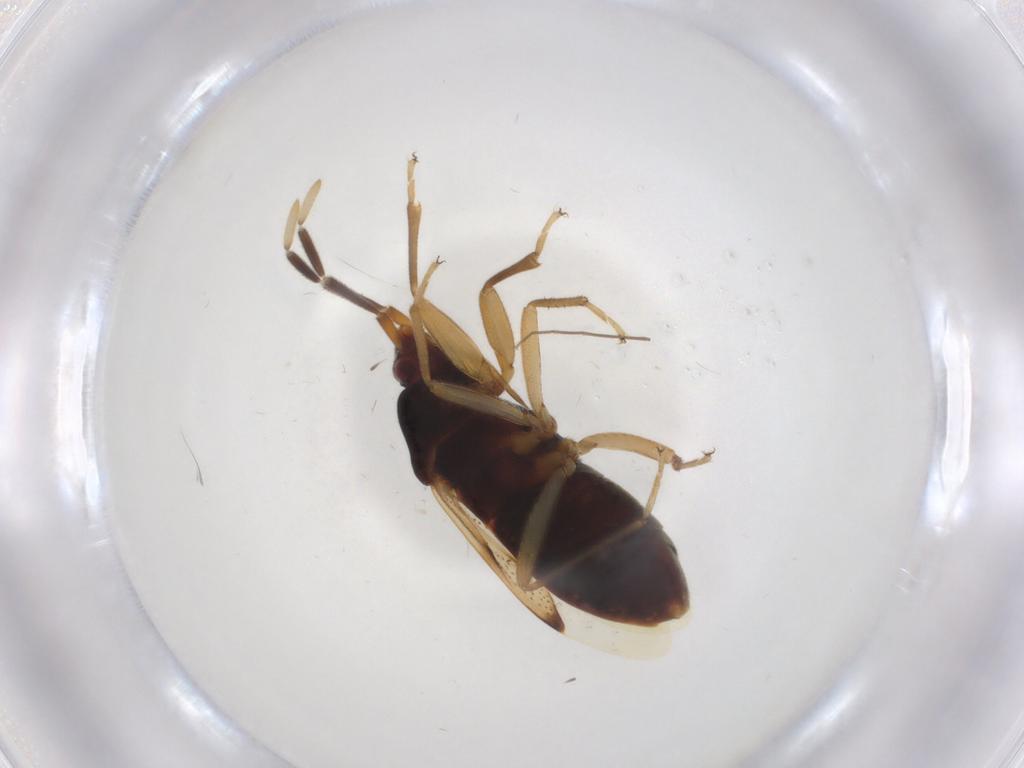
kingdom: Animalia
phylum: Arthropoda
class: Insecta
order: Hemiptera
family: Rhyparochromidae
